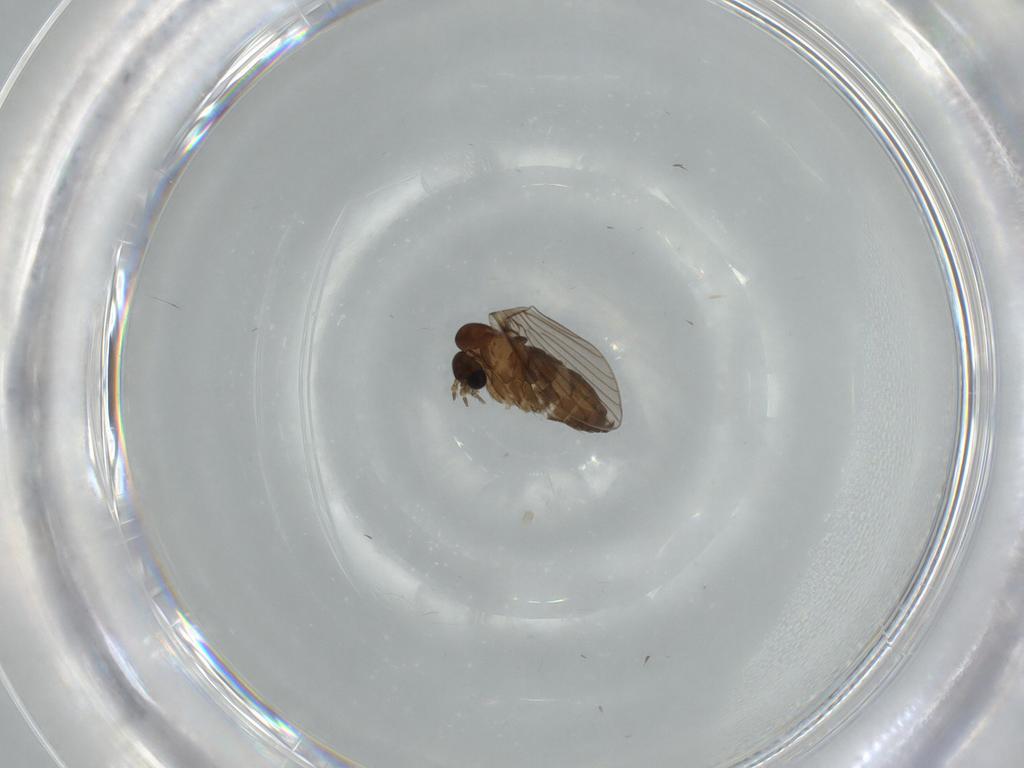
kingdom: Animalia
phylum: Arthropoda
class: Insecta
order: Diptera
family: Psychodidae
